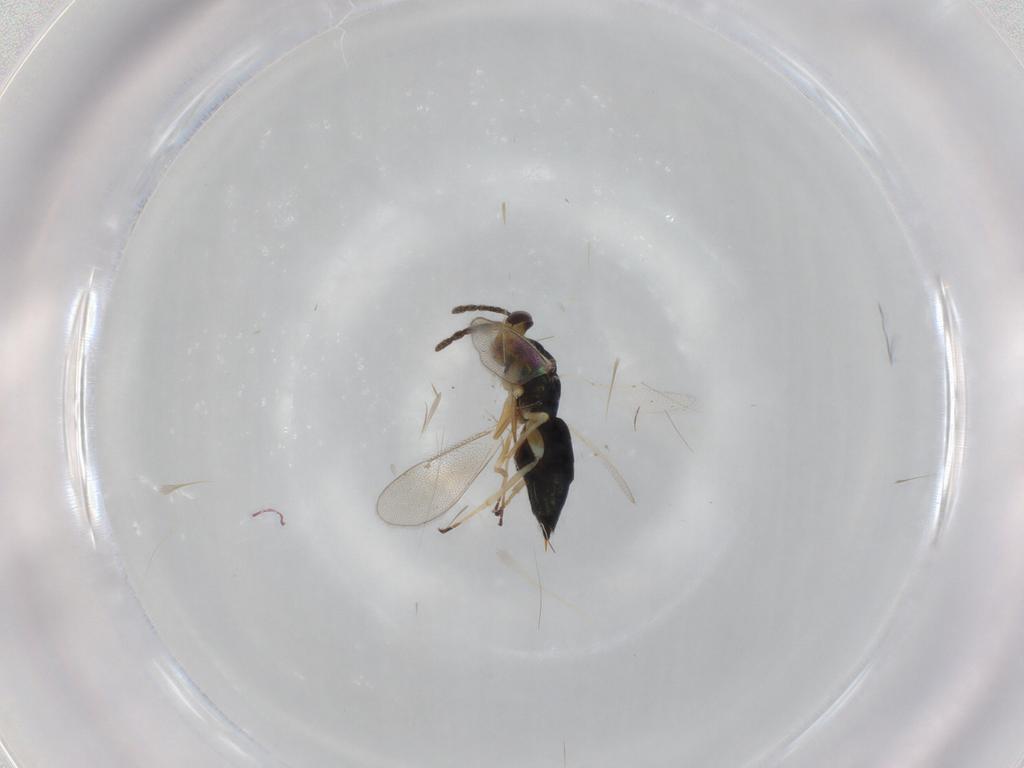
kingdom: Animalia
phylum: Arthropoda
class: Insecta
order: Hymenoptera
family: Eulophidae
